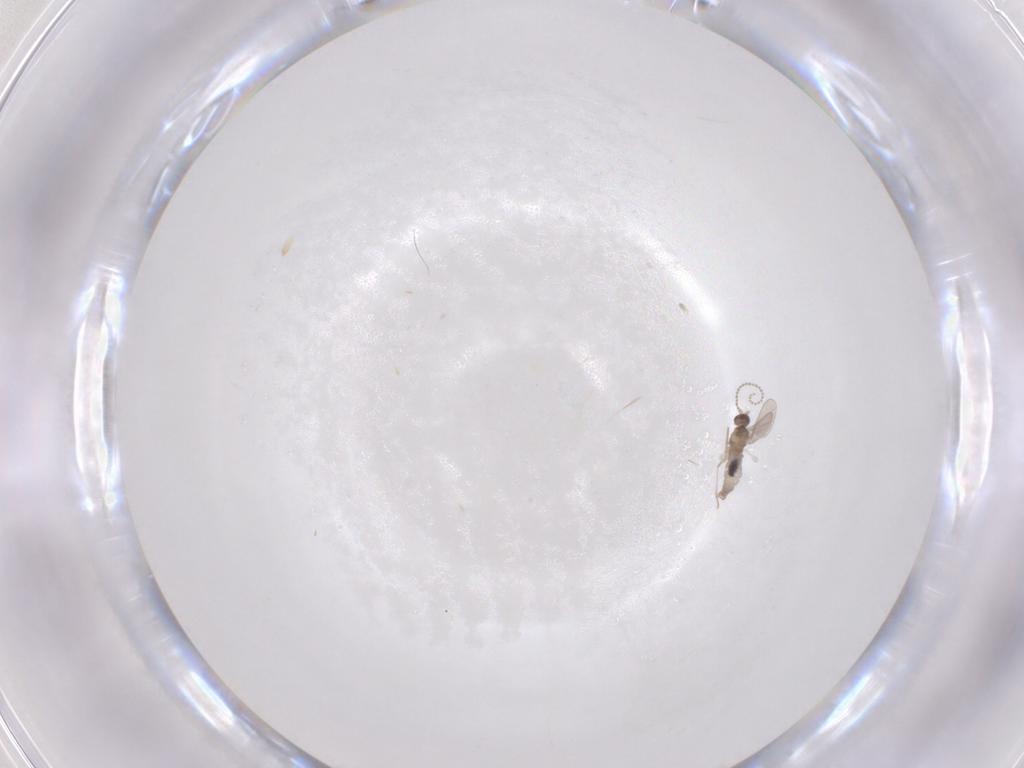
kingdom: Animalia
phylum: Arthropoda
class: Insecta
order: Diptera
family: Cecidomyiidae
